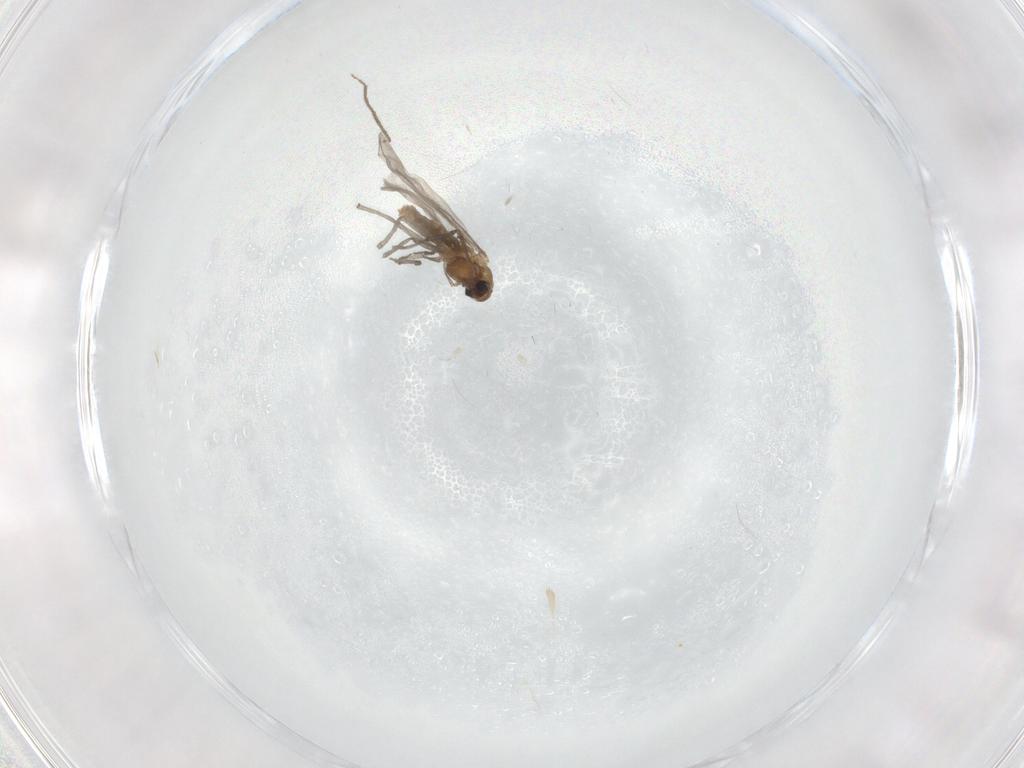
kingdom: Animalia
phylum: Arthropoda
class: Insecta
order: Diptera
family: Chironomidae
